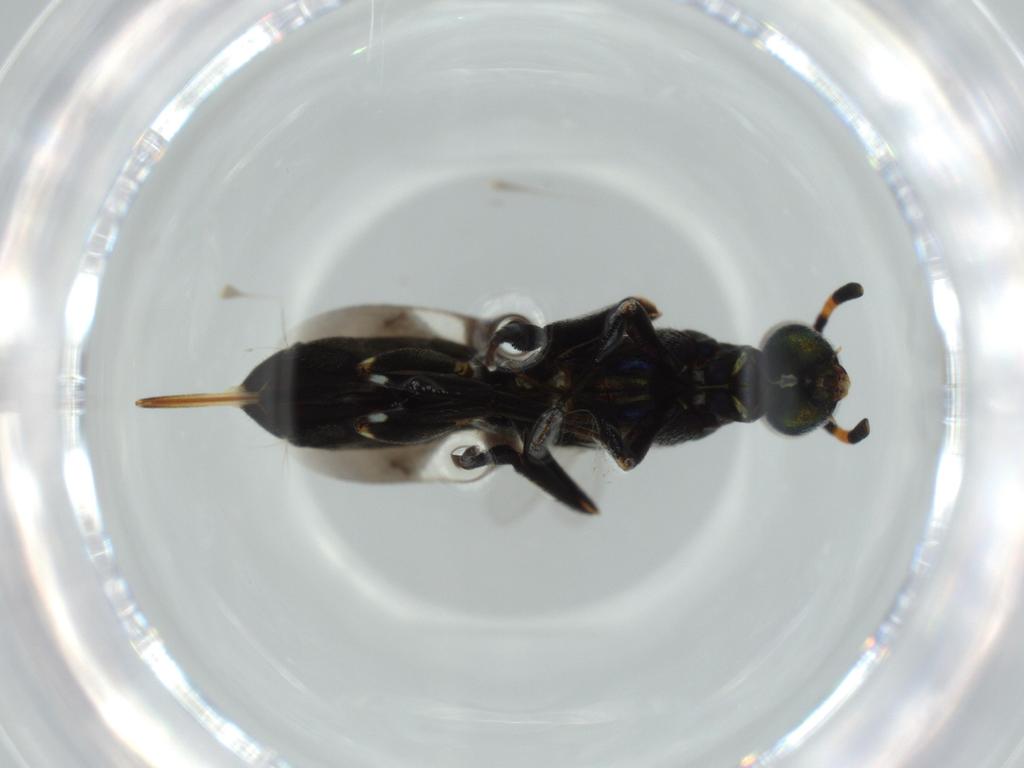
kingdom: Animalia
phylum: Arthropoda
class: Insecta
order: Hymenoptera
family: Eupelmidae
